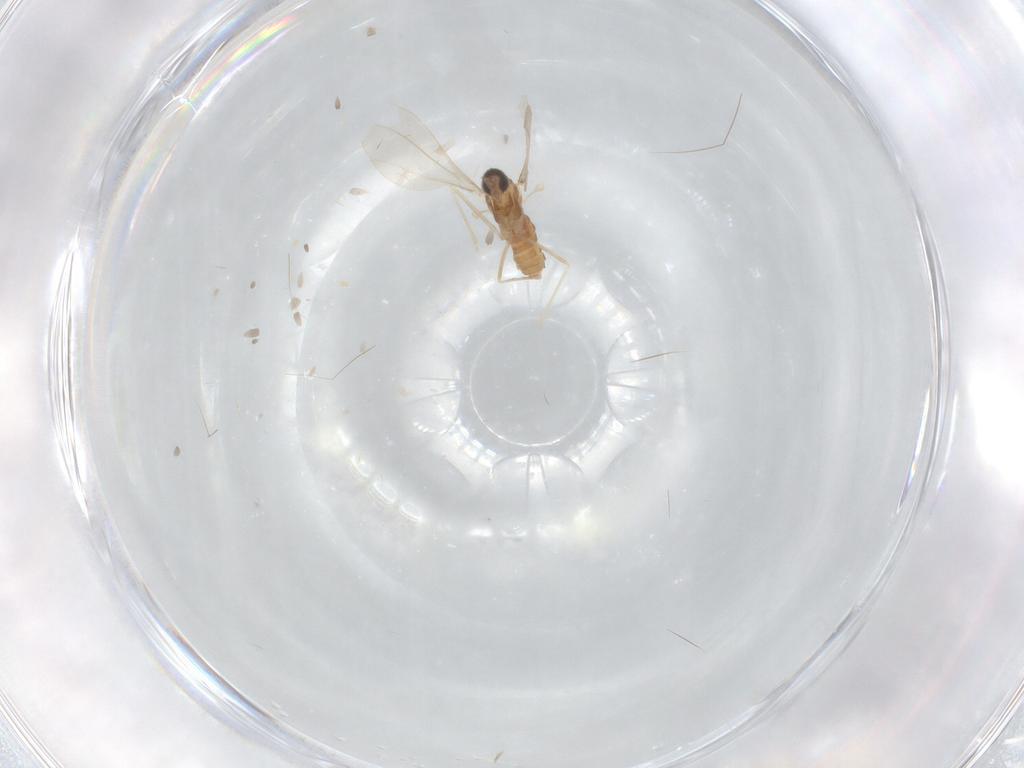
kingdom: Animalia
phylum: Arthropoda
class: Insecta
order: Diptera
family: Cecidomyiidae
